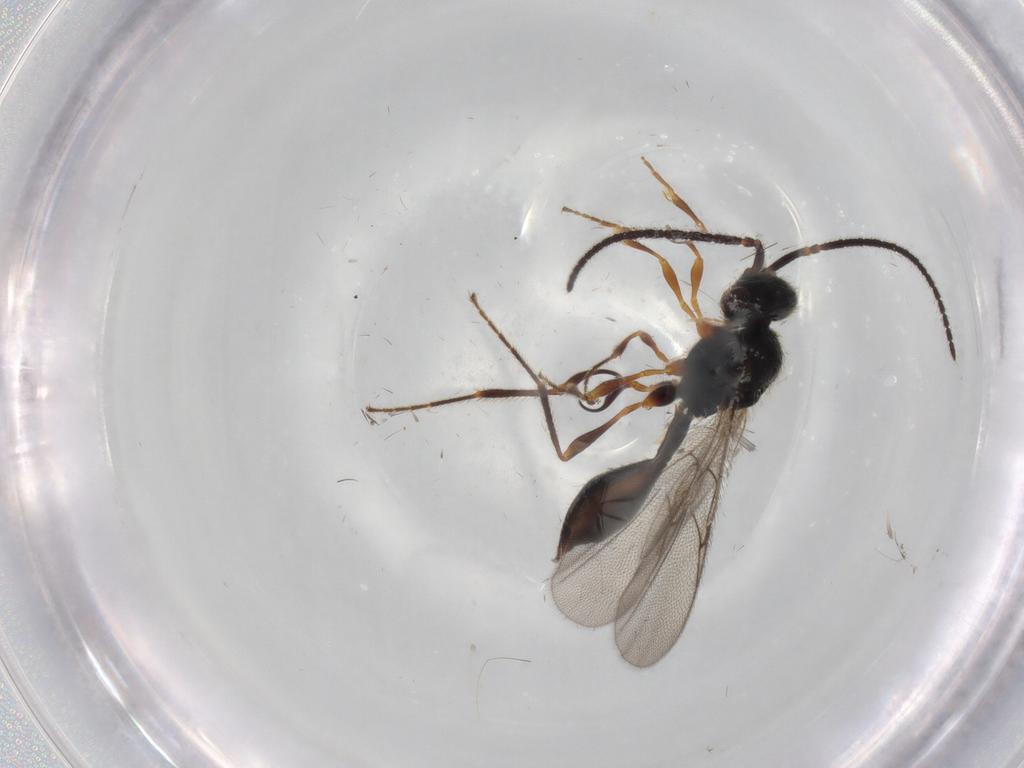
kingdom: Animalia
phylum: Arthropoda
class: Insecta
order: Hymenoptera
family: Diapriidae
